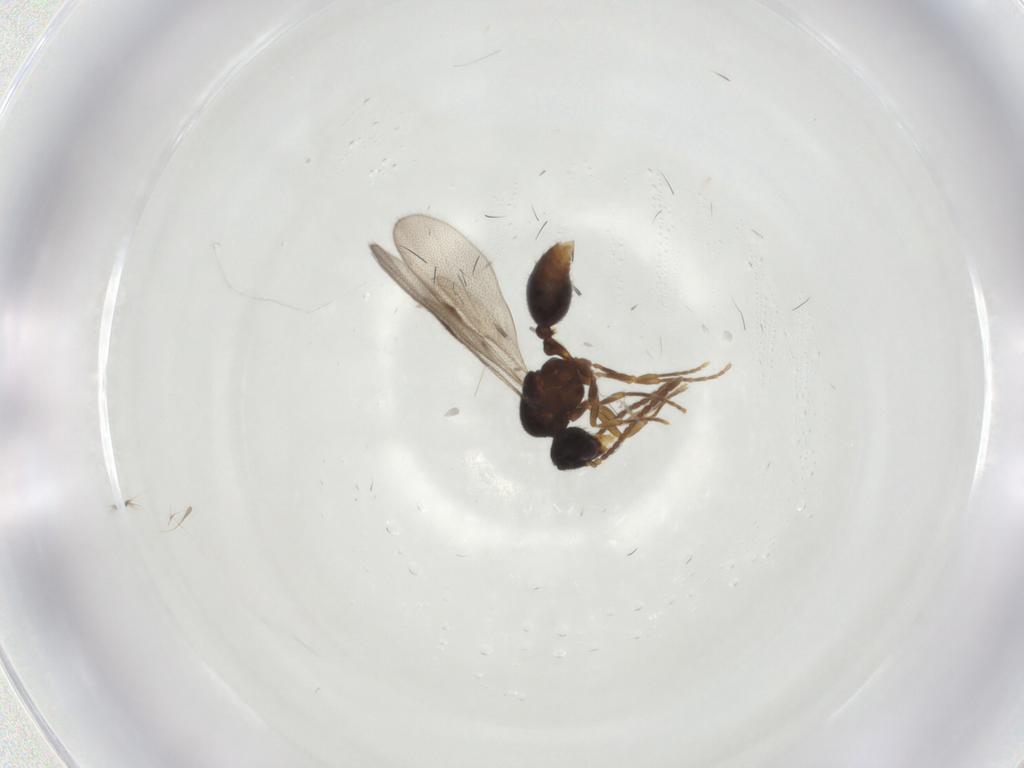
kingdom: Animalia
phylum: Arthropoda
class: Insecta
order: Hymenoptera
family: Formicidae
